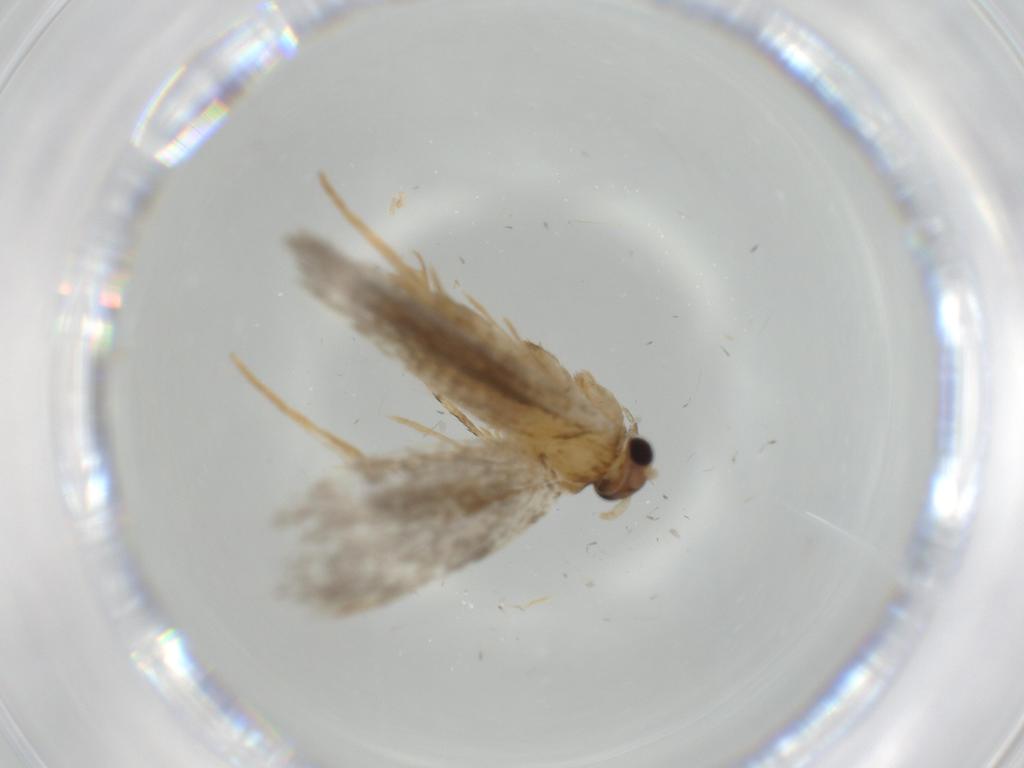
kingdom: Animalia
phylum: Arthropoda
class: Insecta
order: Lepidoptera
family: Tineidae
